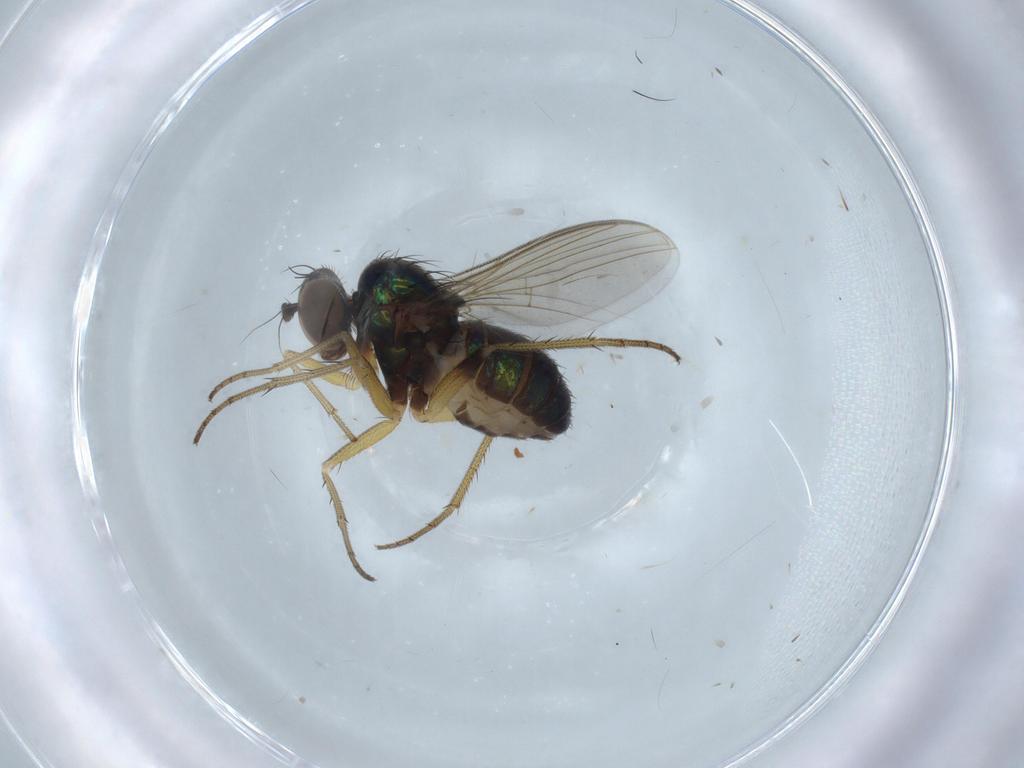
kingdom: Animalia
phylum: Arthropoda
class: Insecta
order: Diptera
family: Dolichopodidae
